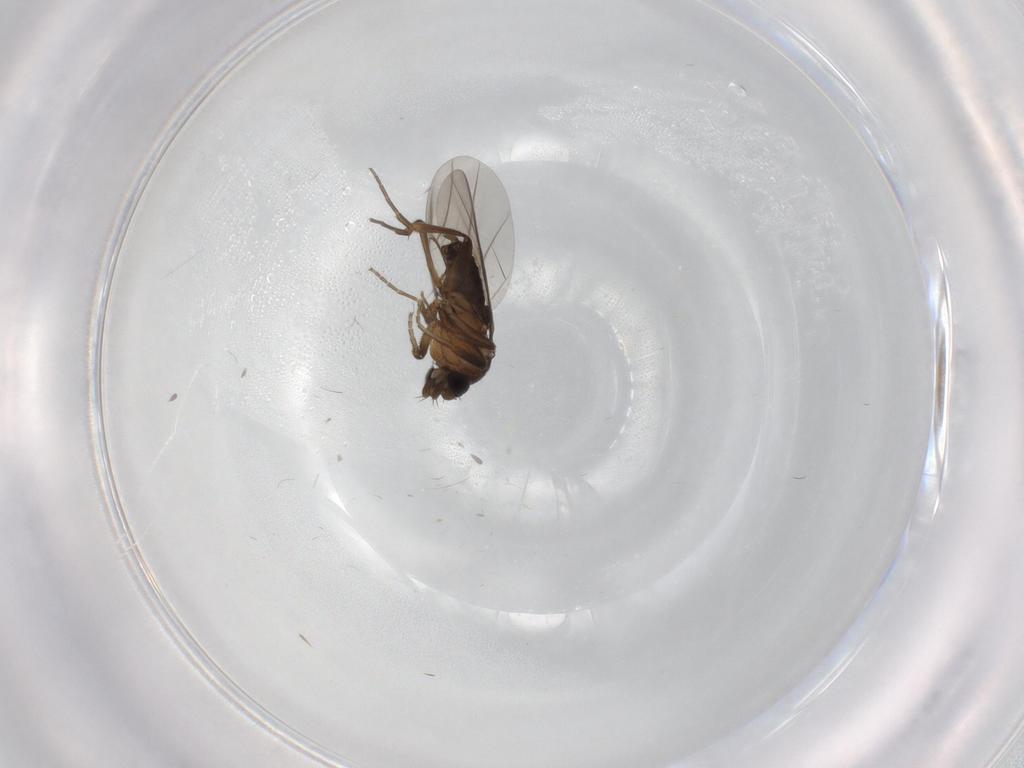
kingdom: Animalia
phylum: Arthropoda
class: Insecta
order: Diptera
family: Phoridae
